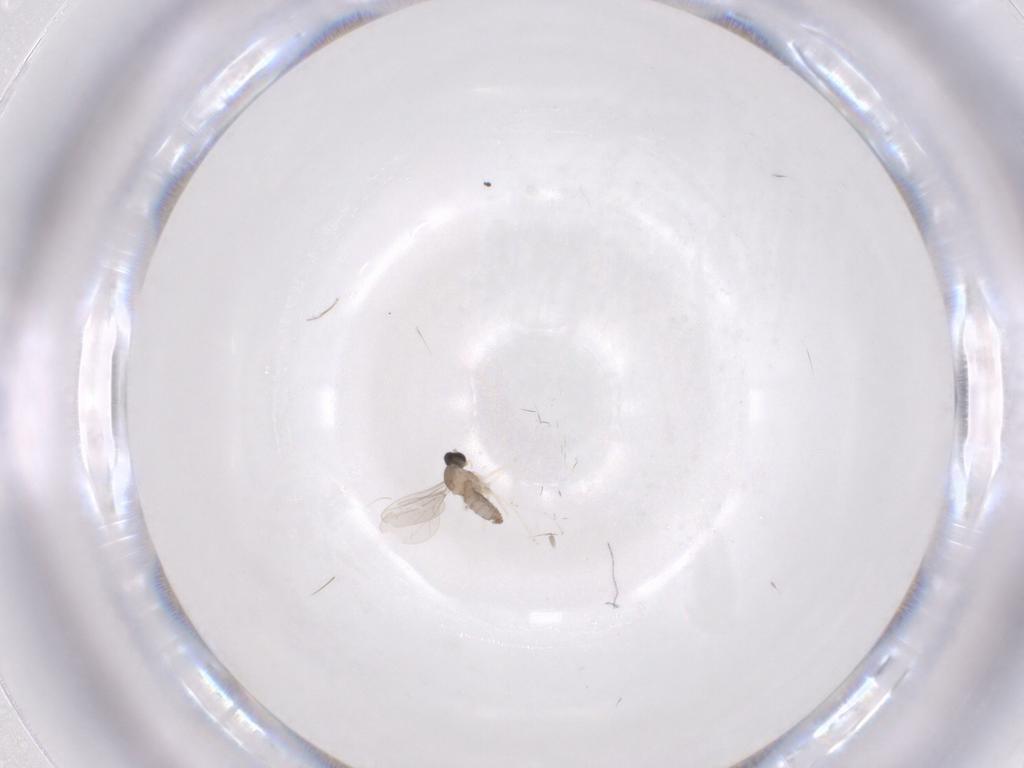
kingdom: Animalia
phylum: Arthropoda
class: Insecta
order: Diptera
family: Cecidomyiidae
